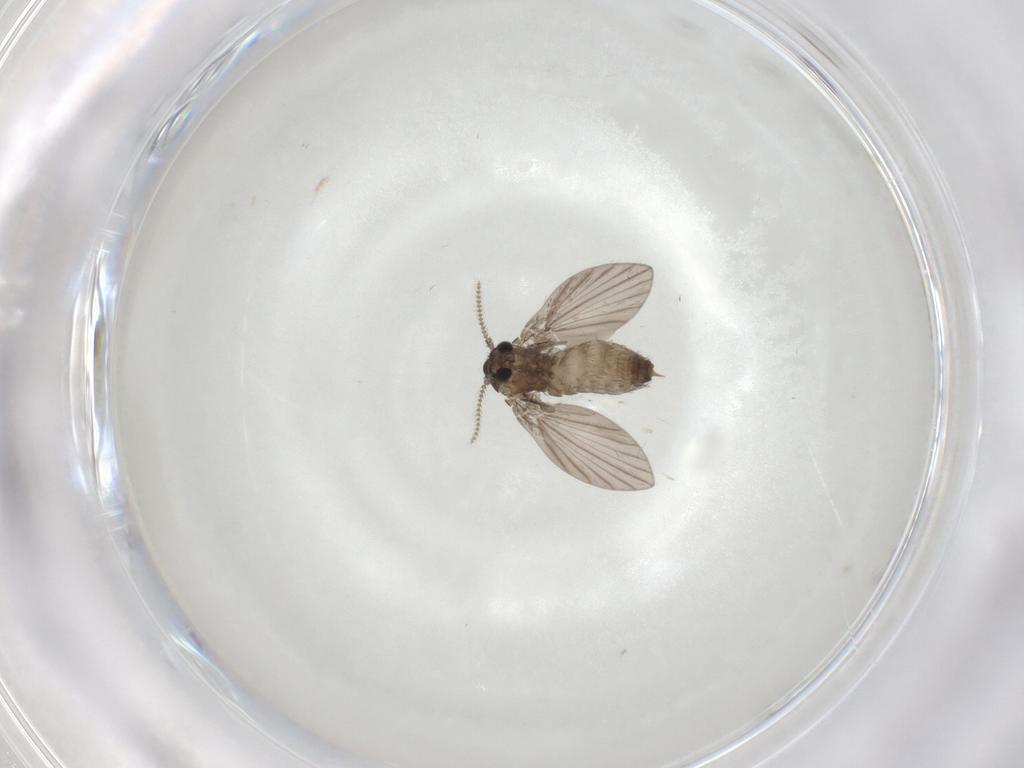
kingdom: Animalia
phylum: Arthropoda
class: Insecta
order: Diptera
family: Psychodidae
